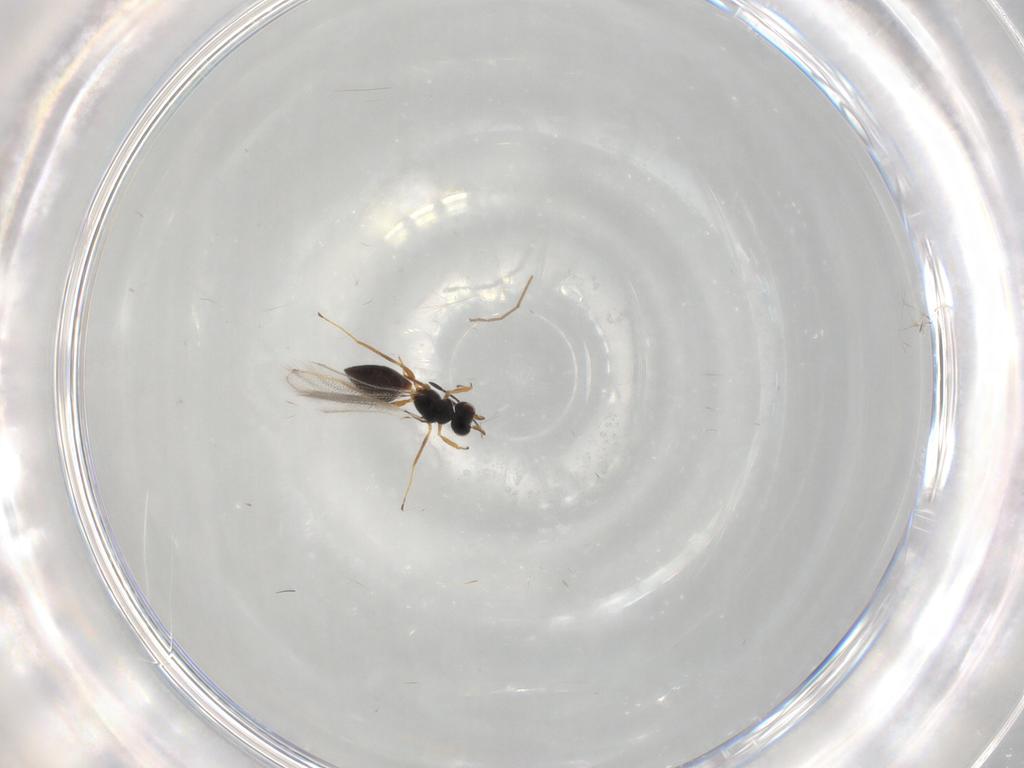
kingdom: Animalia
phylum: Arthropoda
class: Insecta
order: Hymenoptera
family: Mymaridae
